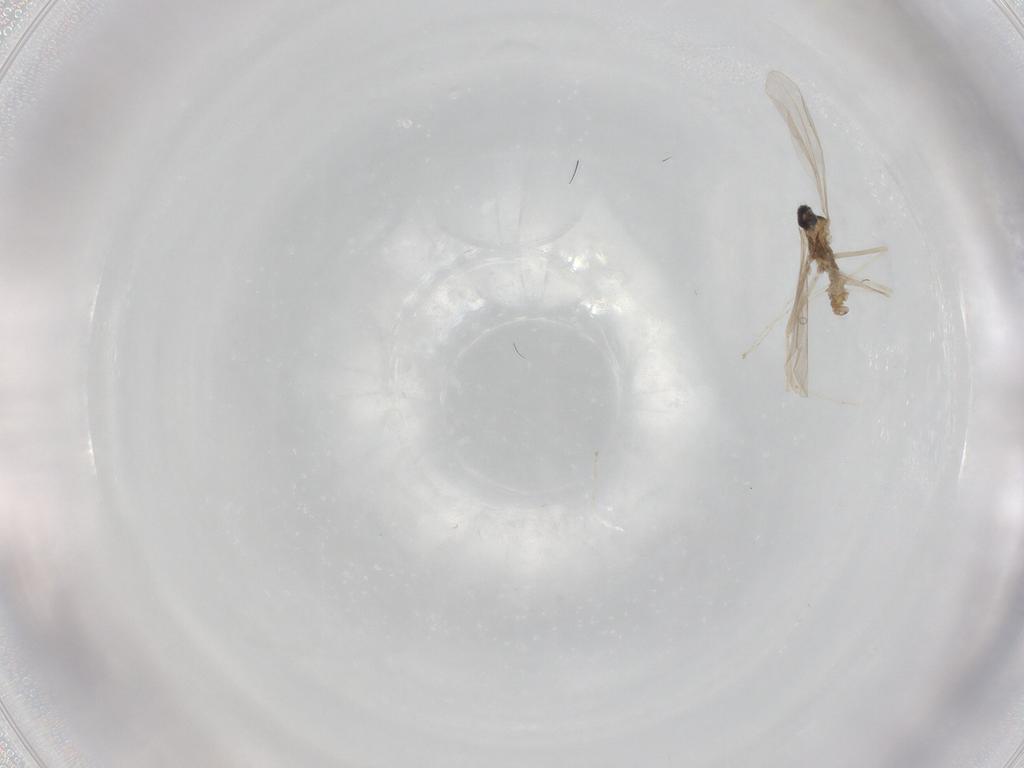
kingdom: Animalia
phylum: Arthropoda
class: Insecta
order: Diptera
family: Cecidomyiidae
